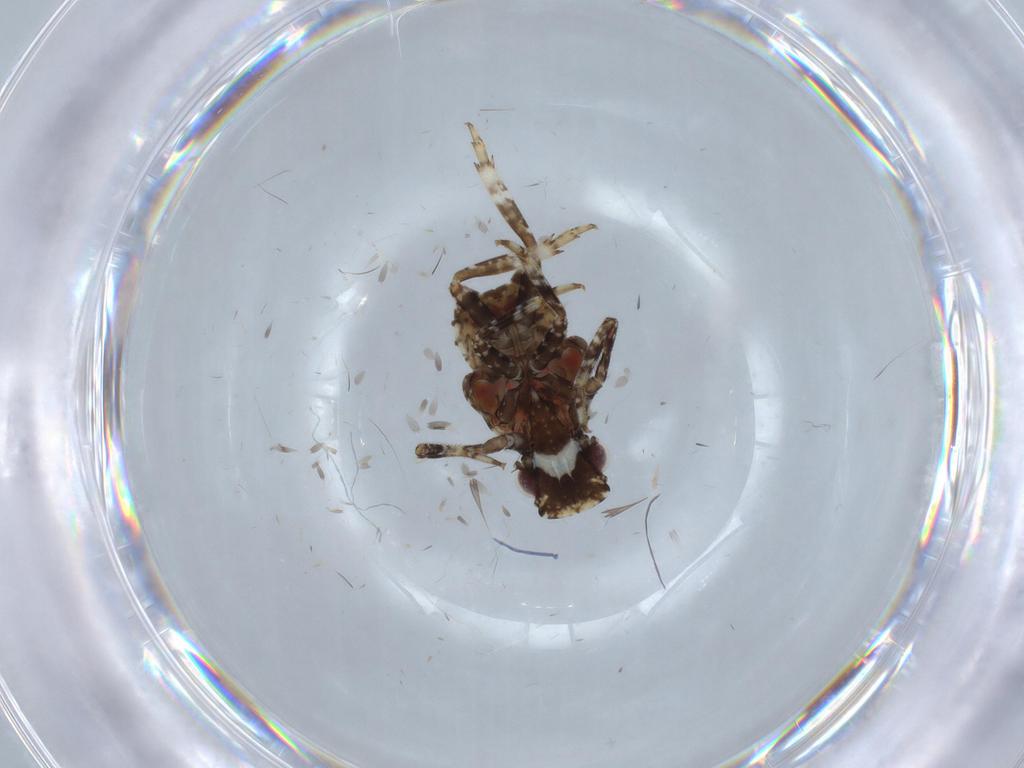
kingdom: Animalia
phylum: Arthropoda
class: Insecta
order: Hemiptera
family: Fulgoridae
